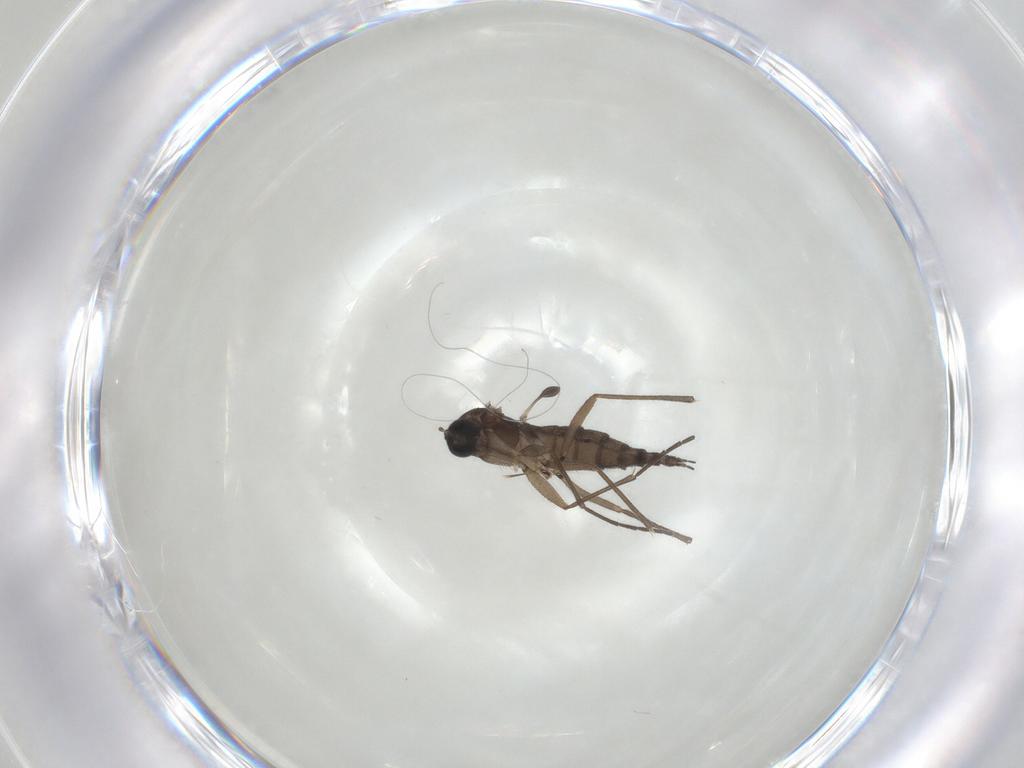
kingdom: Animalia
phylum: Arthropoda
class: Insecta
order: Diptera
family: Sciaridae
